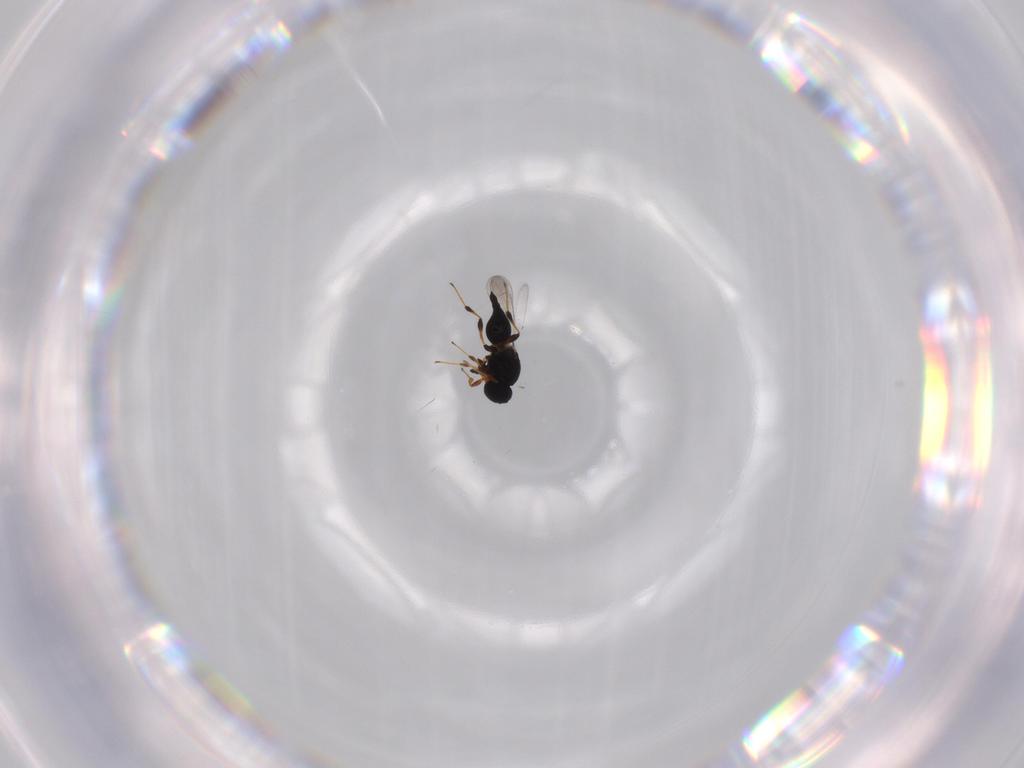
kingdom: Animalia
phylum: Arthropoda
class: Insecta
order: Hymenoptera
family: Platygastridae
